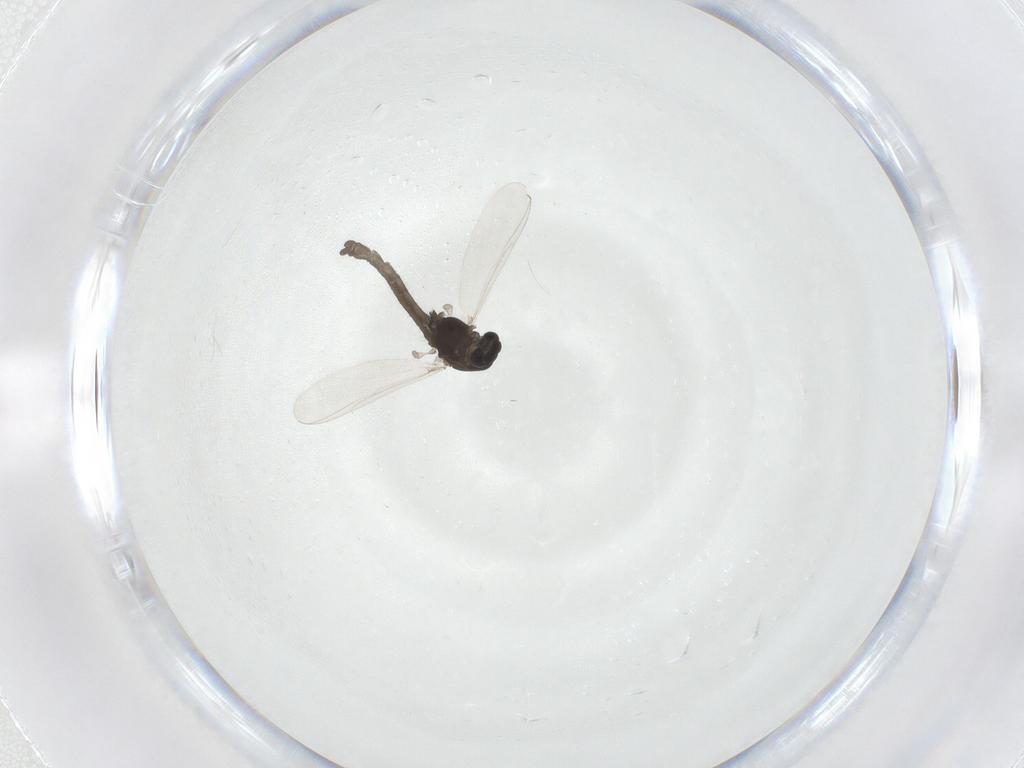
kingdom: Animalia
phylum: Arthropoda
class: Insecta
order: Diptera
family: Chironomidae
